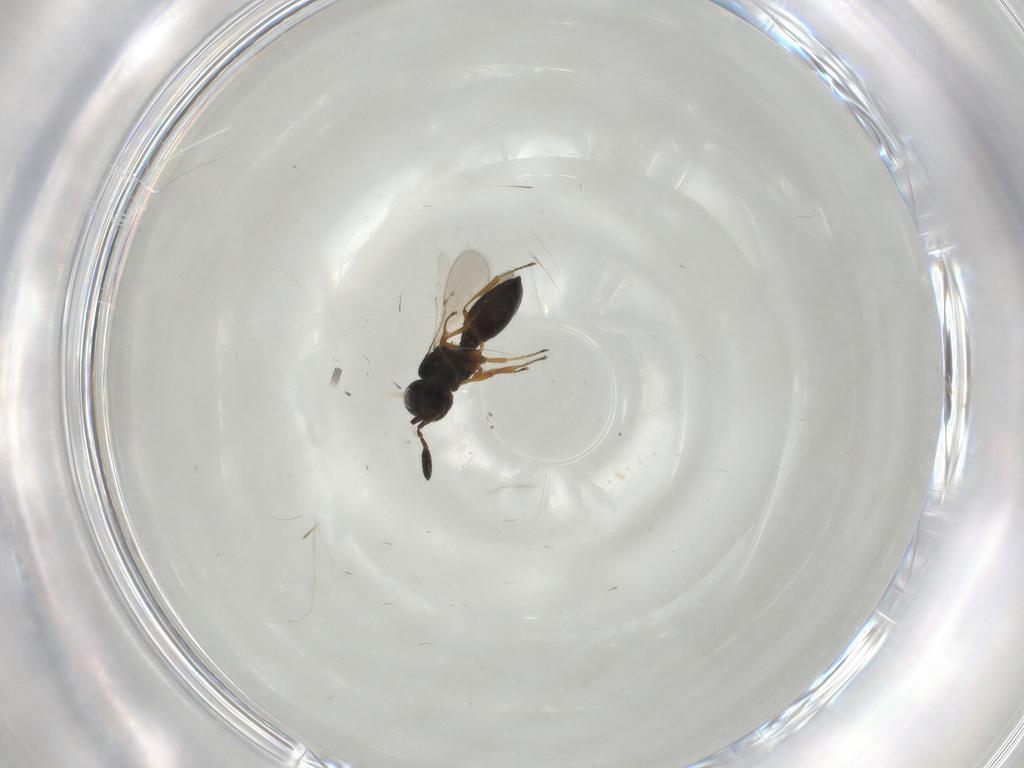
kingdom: Animalia
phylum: Arthropoda
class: Insecta
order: Hymenoptera
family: Scelionidae
